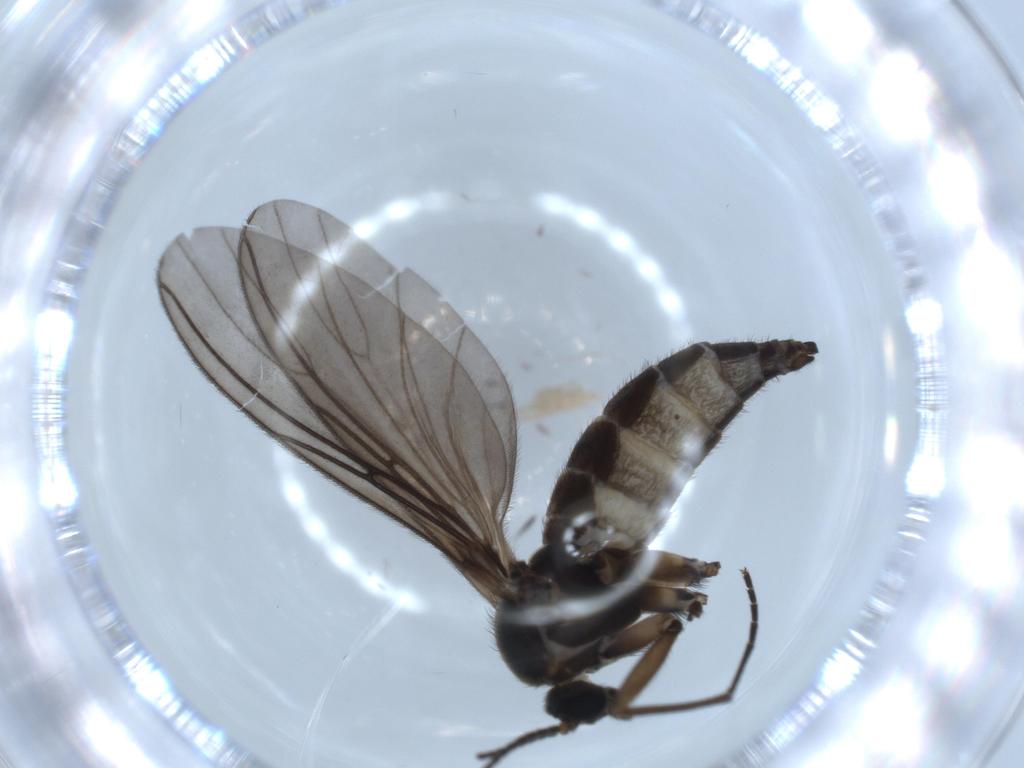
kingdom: Animalia
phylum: Arthropoda
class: Insecta
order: Diptera
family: Sciaridae
